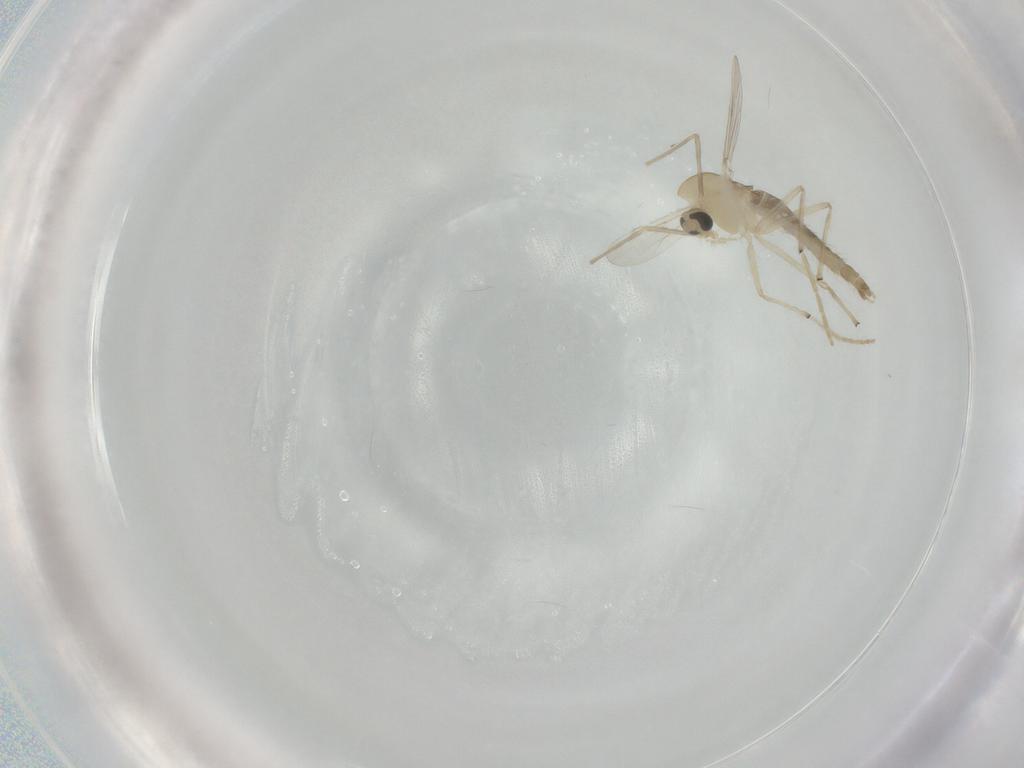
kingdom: Animalia
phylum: Arthropoda
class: Insecta
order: Diptera
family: Chironomidae
